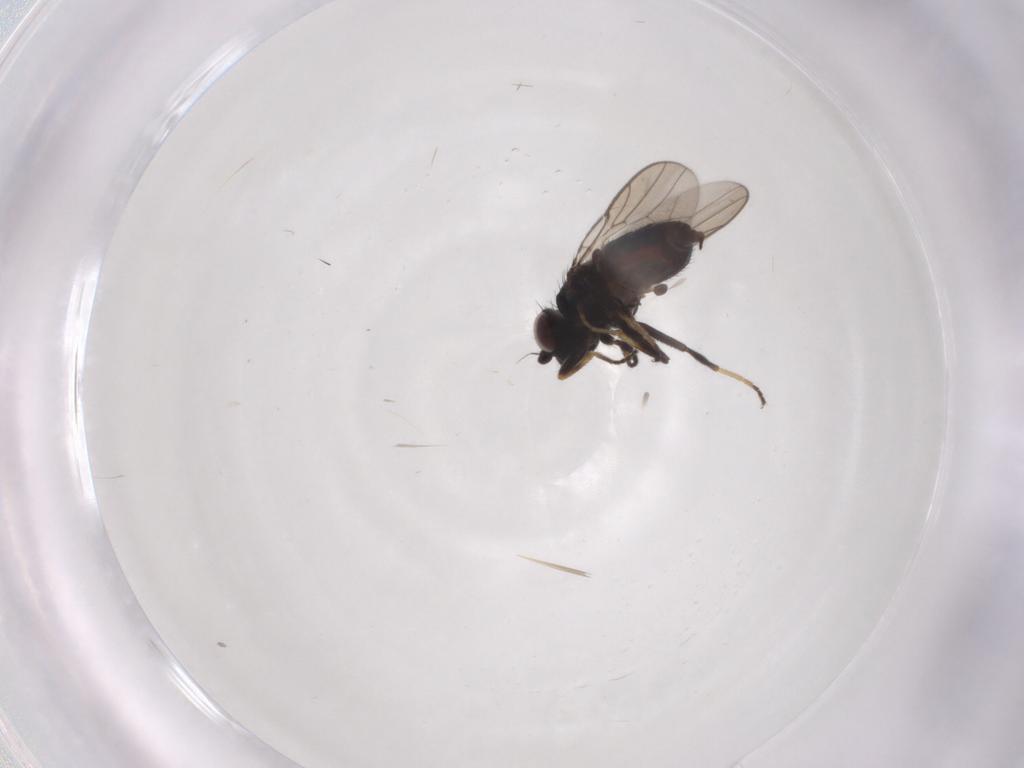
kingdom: Animalia
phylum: Arthropoda
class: Insecta
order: Diptera
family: Chloropidae
